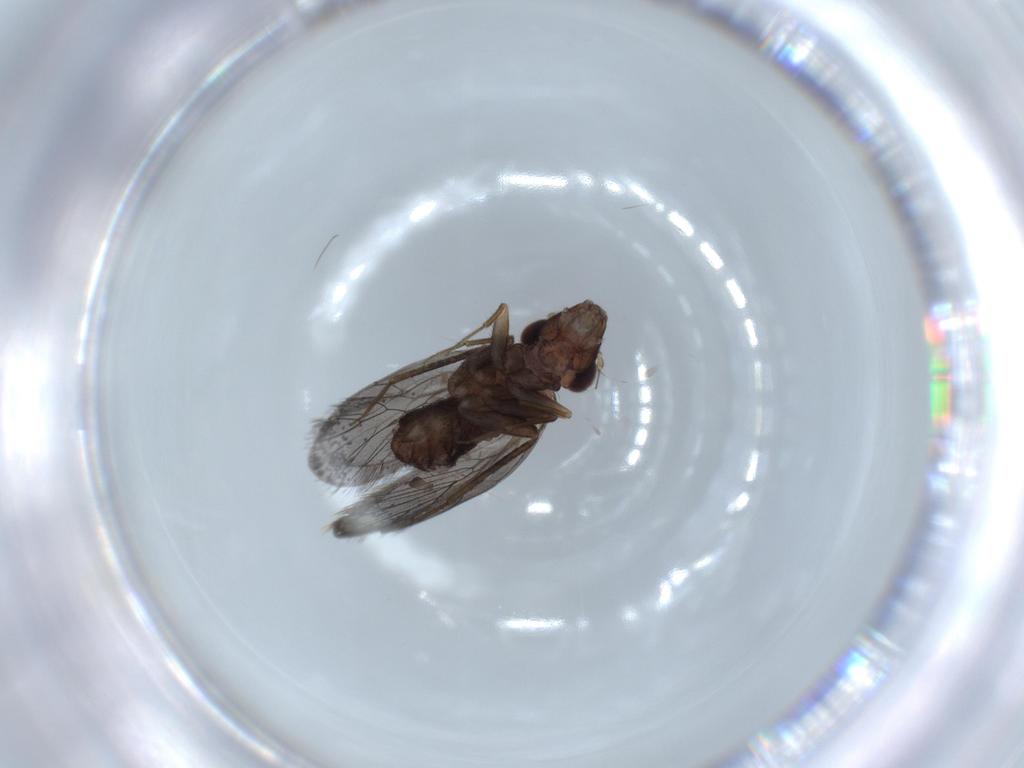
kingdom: Animalia
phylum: Arthropoda
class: Insecta
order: Psocodea
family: Lepidopsocidae
